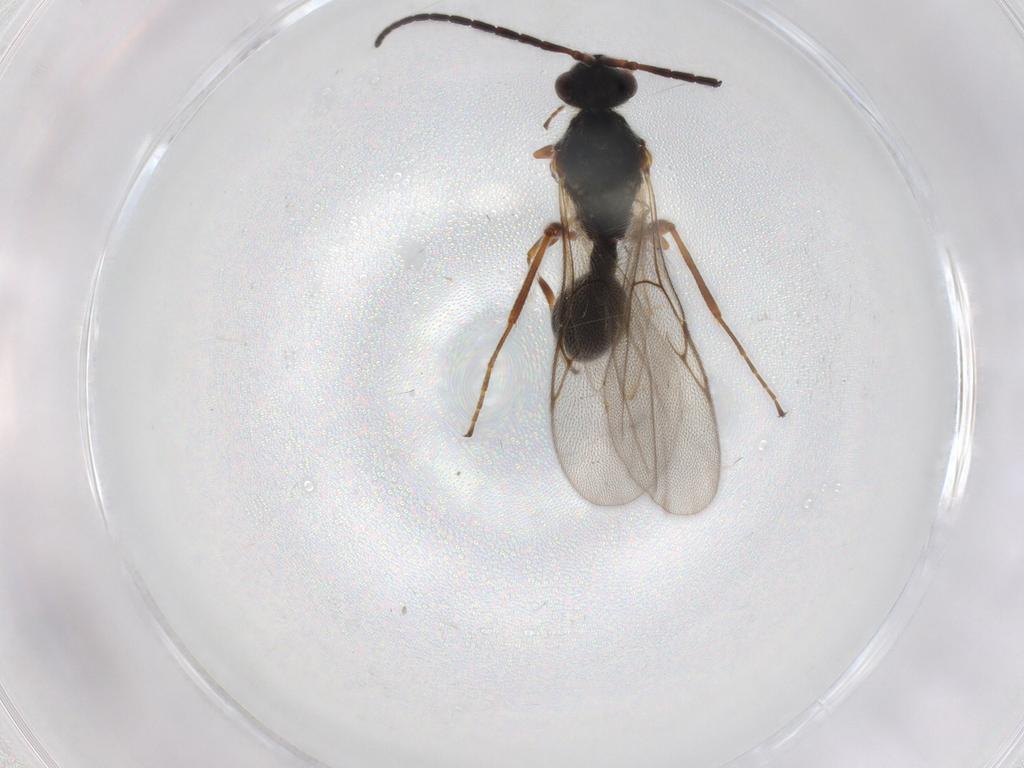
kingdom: Animalia
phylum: Arthropoda
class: Insecta
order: Hymenoptera
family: Diapriidae
